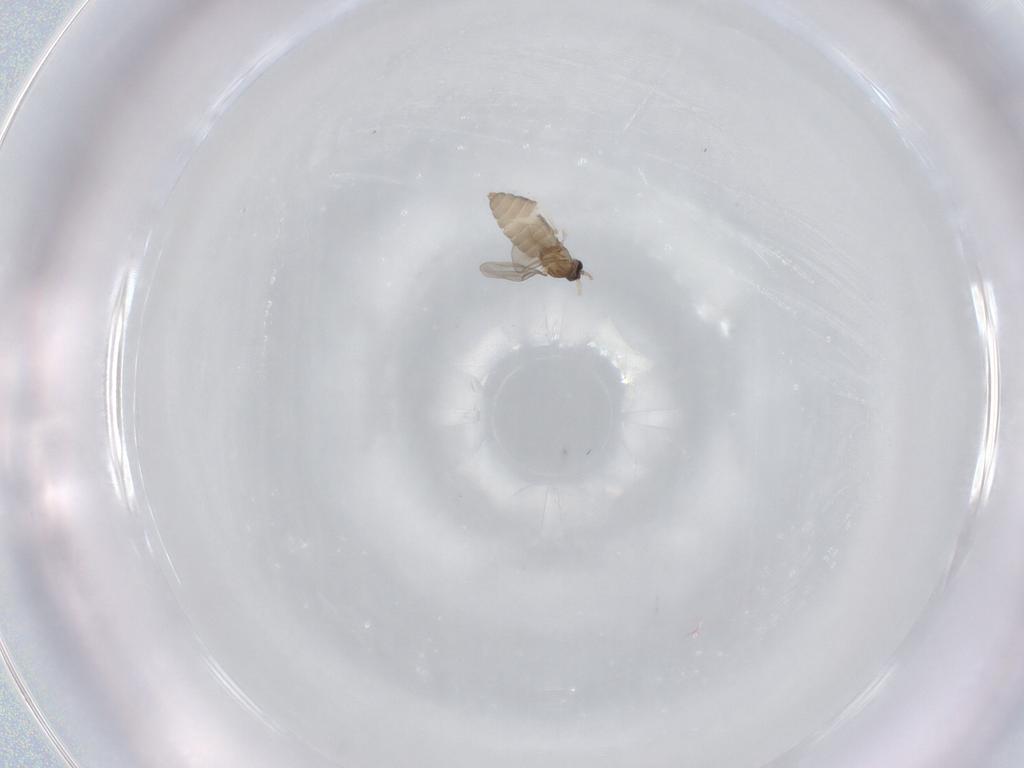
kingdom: Animalia
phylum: Arthropoda
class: Insecta
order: Diptera
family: Cecidomyiidae
